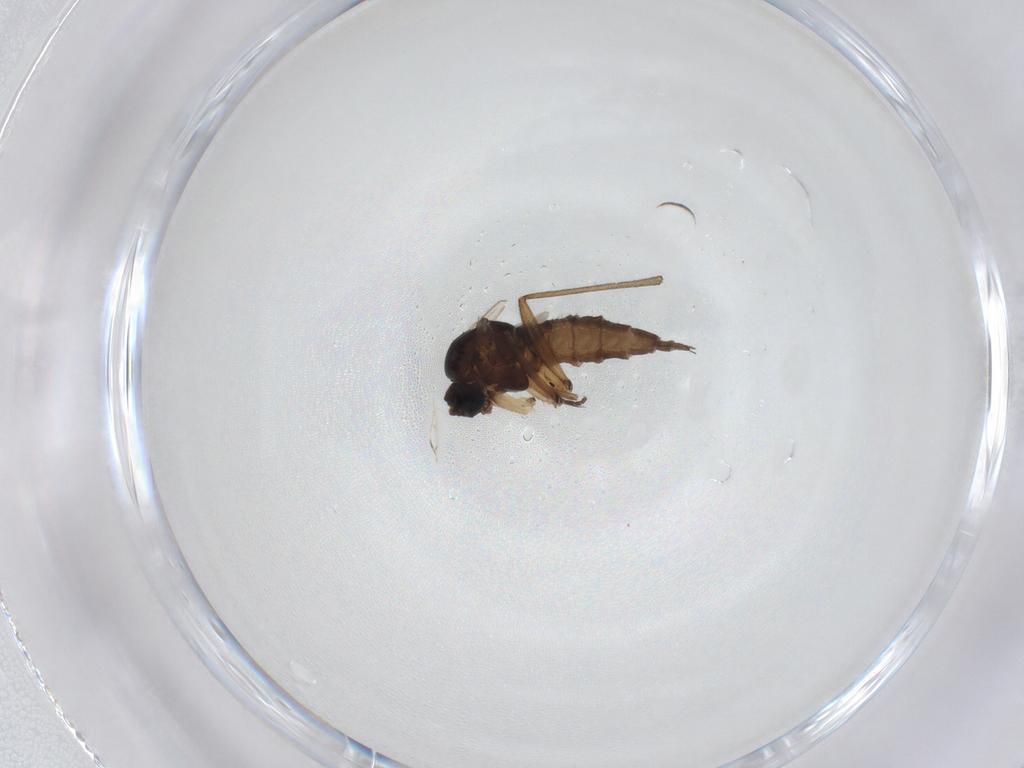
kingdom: Animalia
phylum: Arthropoda
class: Insecta
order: Diptera
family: Sciaridae
